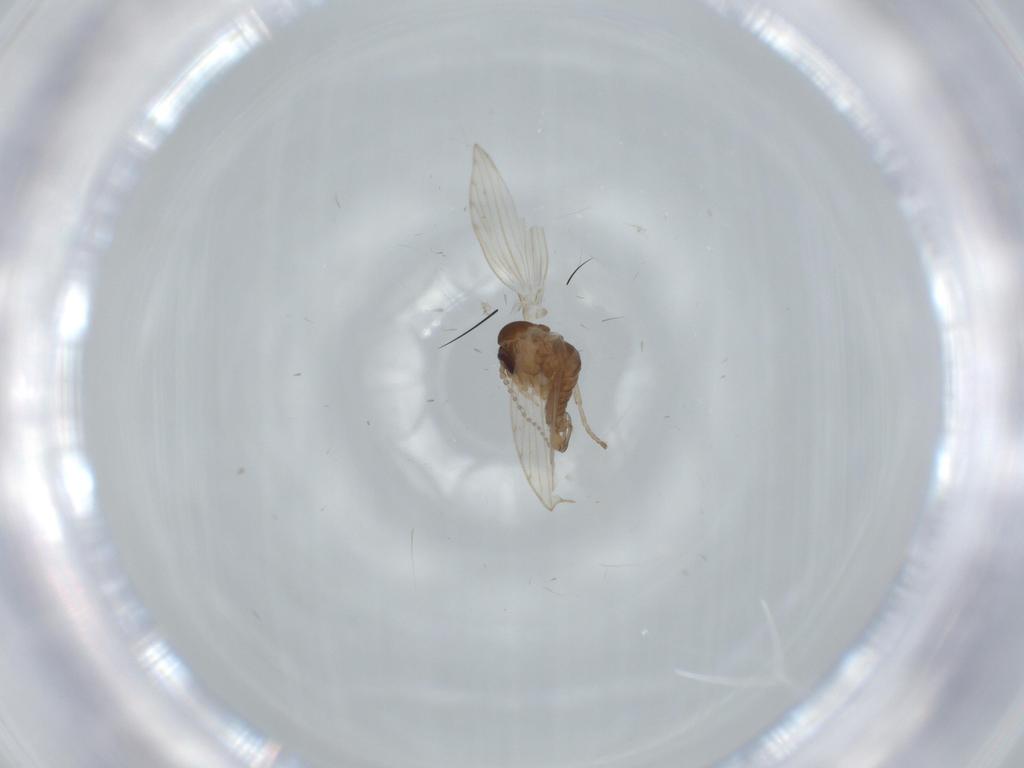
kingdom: Animalia
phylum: Arthropoda
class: Insecta
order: Diptera
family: Psychodidae
